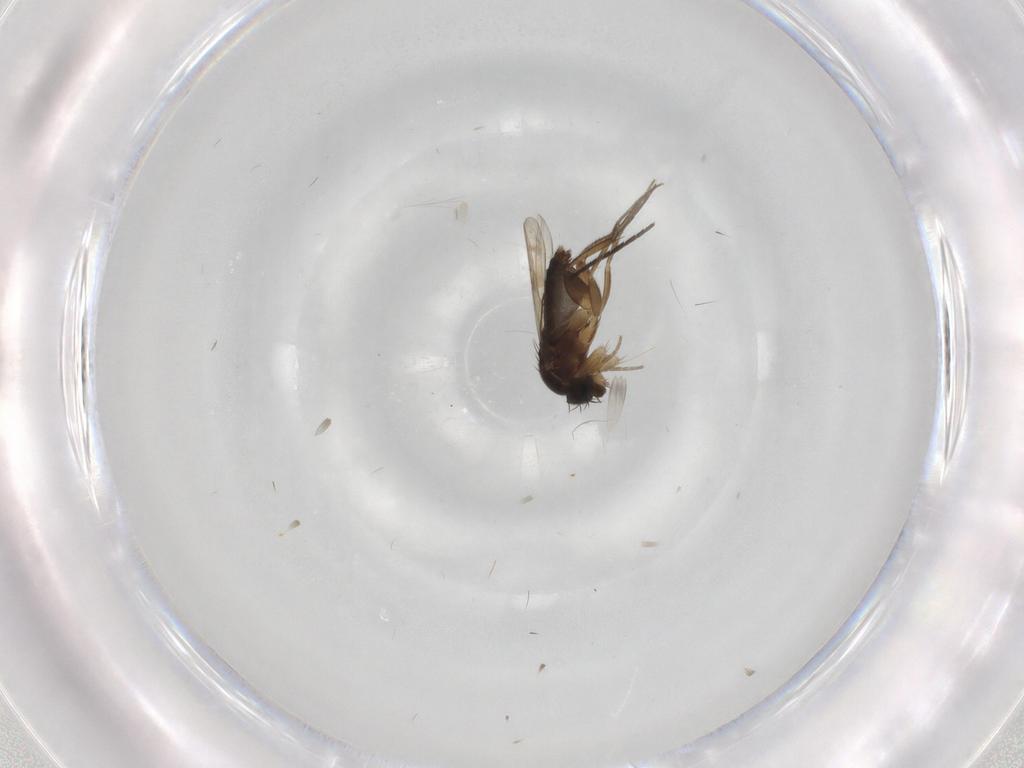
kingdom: Animalia
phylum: Arthropoda
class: Insecta
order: Diptera
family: Phoridae
